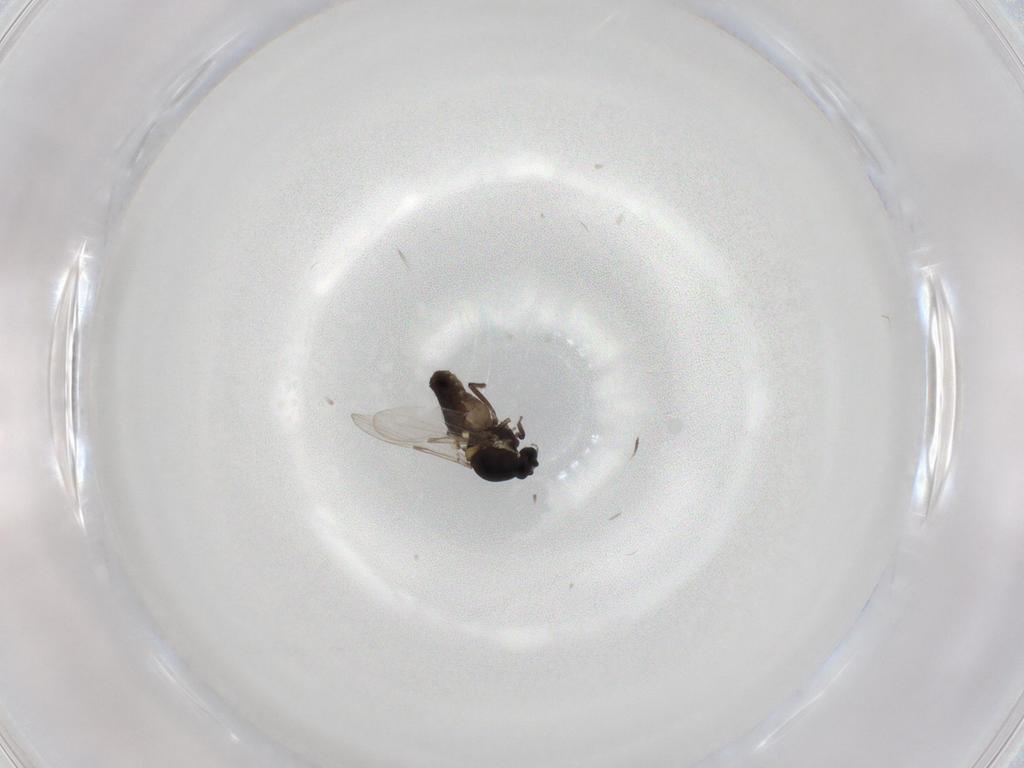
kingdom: Animalia
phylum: Arthropoda
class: Insecta
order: Diptera
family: Ceratopogonidae
